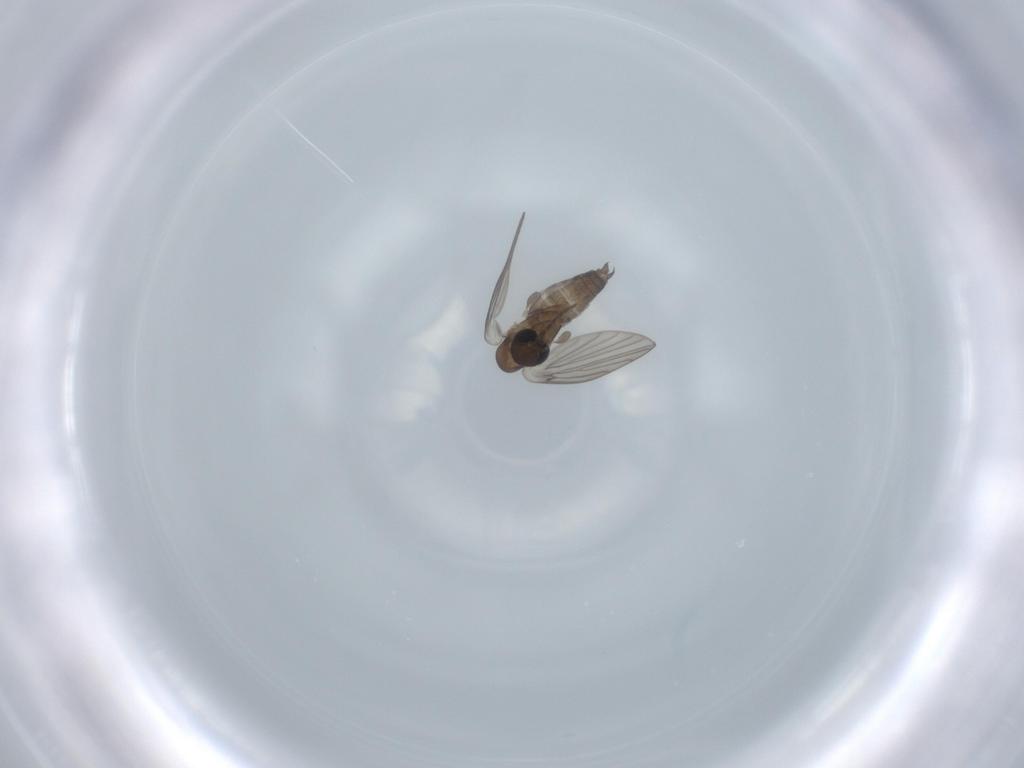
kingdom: Animalia
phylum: Arthropoda
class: Insecta
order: Diptera
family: Psychodidae
